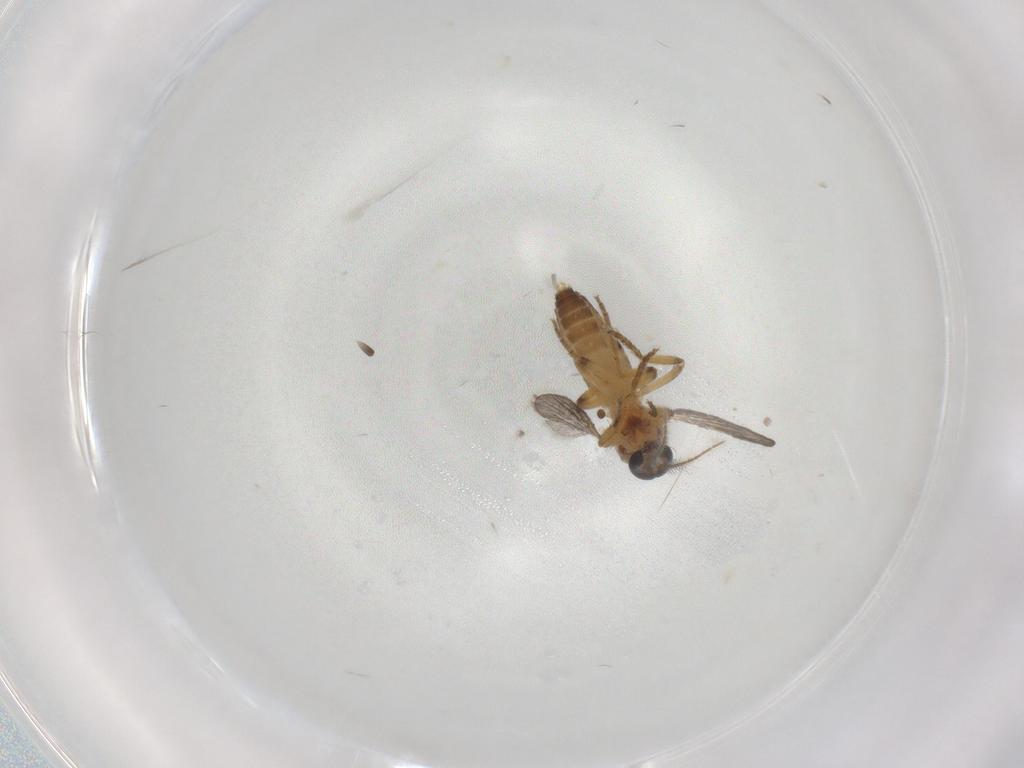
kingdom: Animalia
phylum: Arthropoda
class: Insecta
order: Diptera
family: Ceratopogonidae
